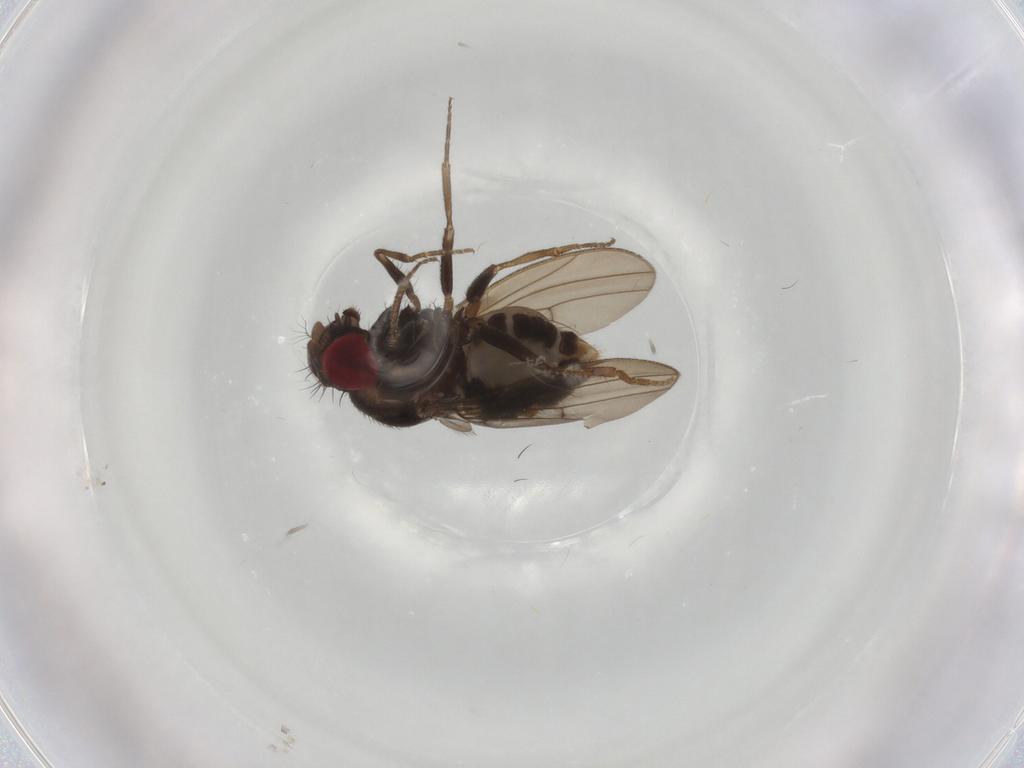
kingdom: Animalia
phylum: Arthropoda
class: Insecta
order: Diptera
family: Drosophilidae
